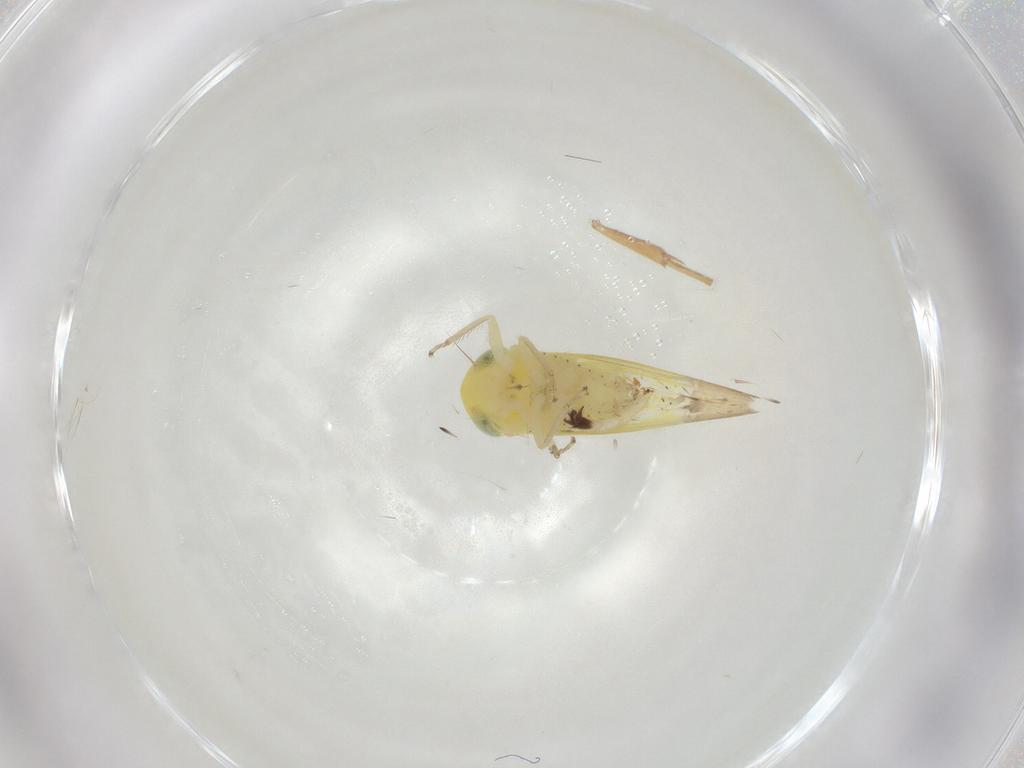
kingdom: Animalia
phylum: Arthropoda
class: Insecta
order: Hemiptera
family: Cicadellidae
